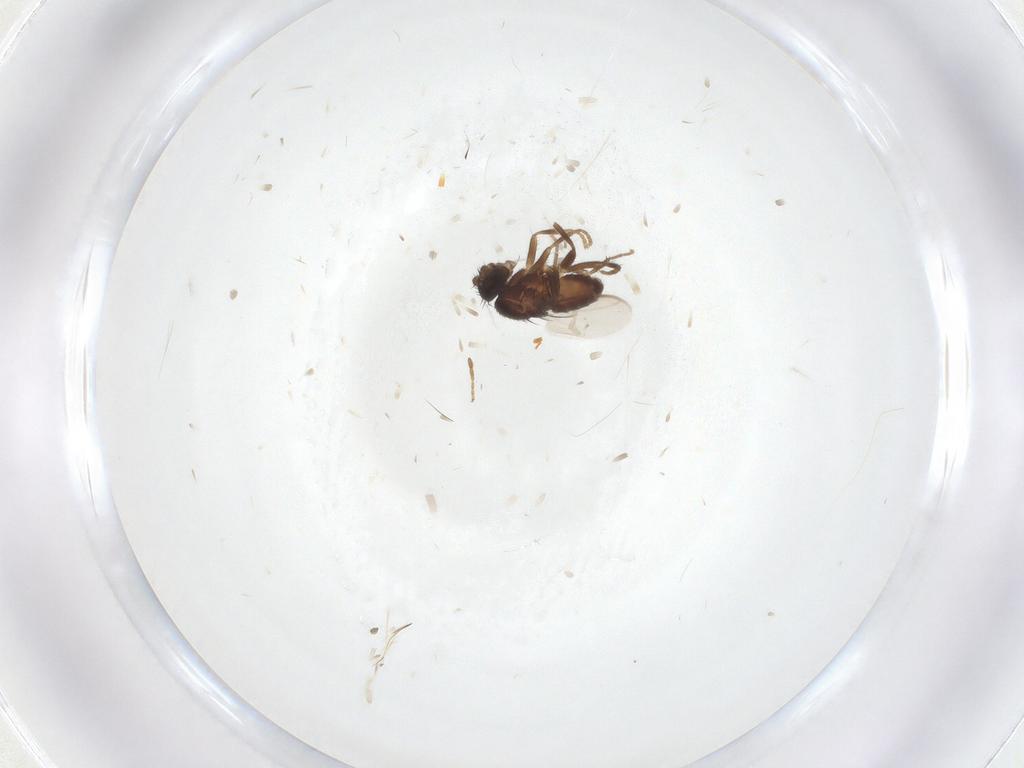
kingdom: Animalia
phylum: Arthropoda
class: Insecta
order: Diptera
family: Sphaeroceridae
